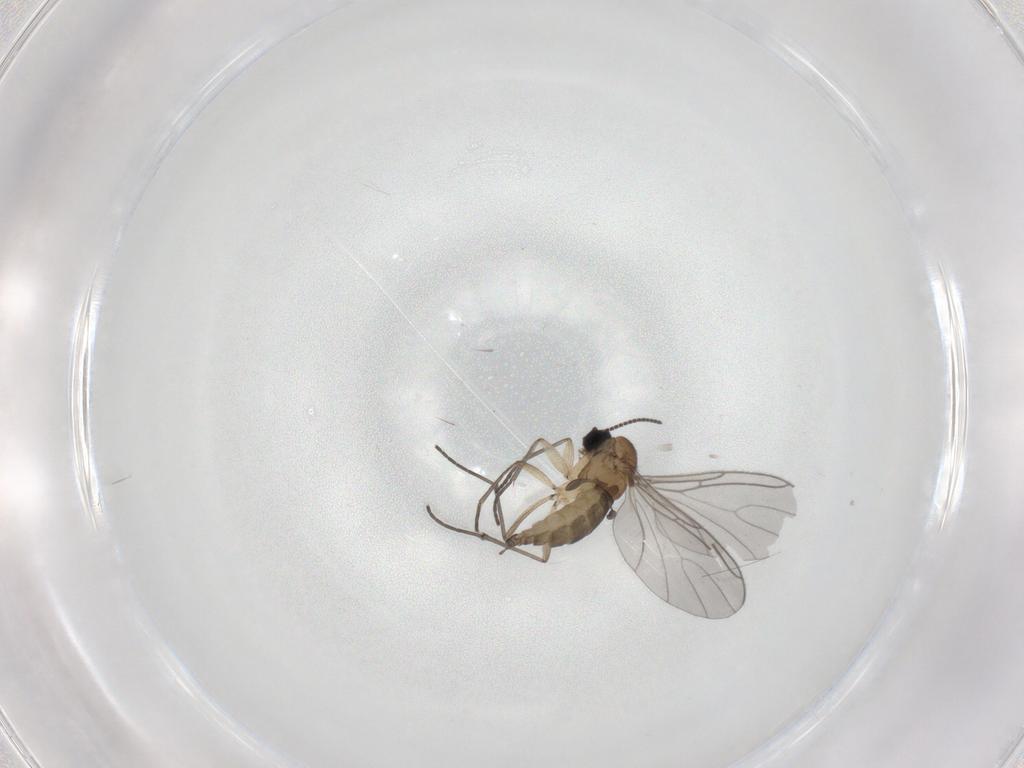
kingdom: Animalia
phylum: Arthropoda
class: Insecta
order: Diptera
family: Sciaridae
